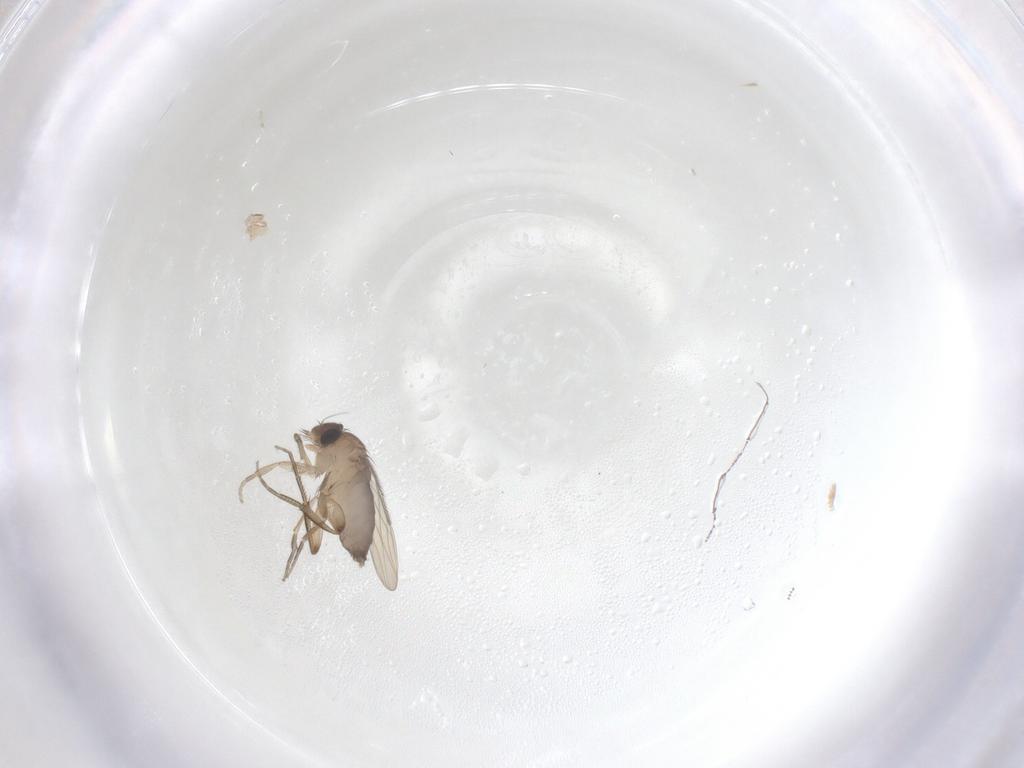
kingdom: Animalia
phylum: Arthropoda
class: Insecta
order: Diptera
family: Phoridae
